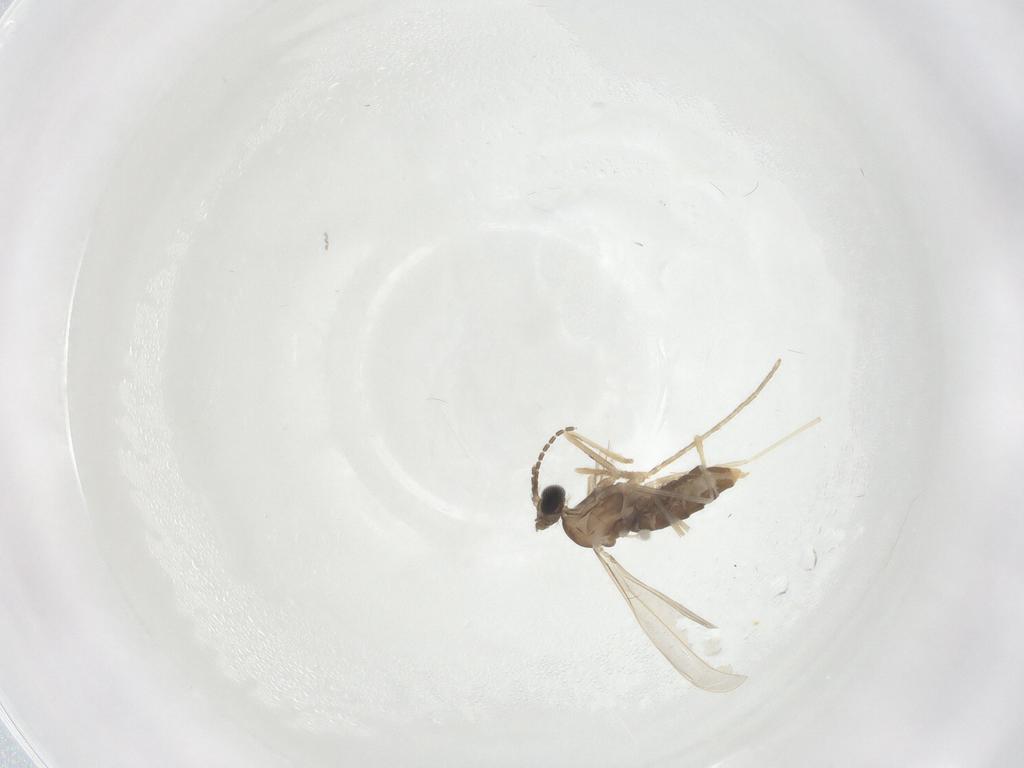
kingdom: Animalia
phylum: Arthropoda
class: Insecta
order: Diptera
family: Cecidomyiidae
